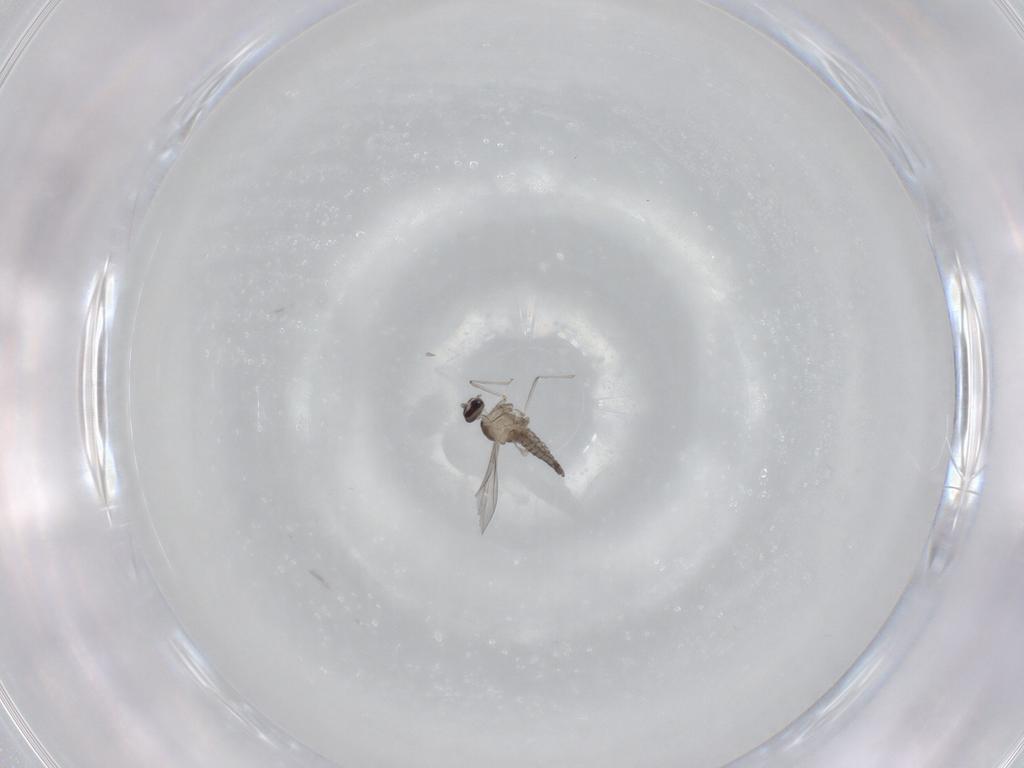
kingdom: Animalia
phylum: Arthropoda
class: Insecta
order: Diptera
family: Cecidomyiidae
